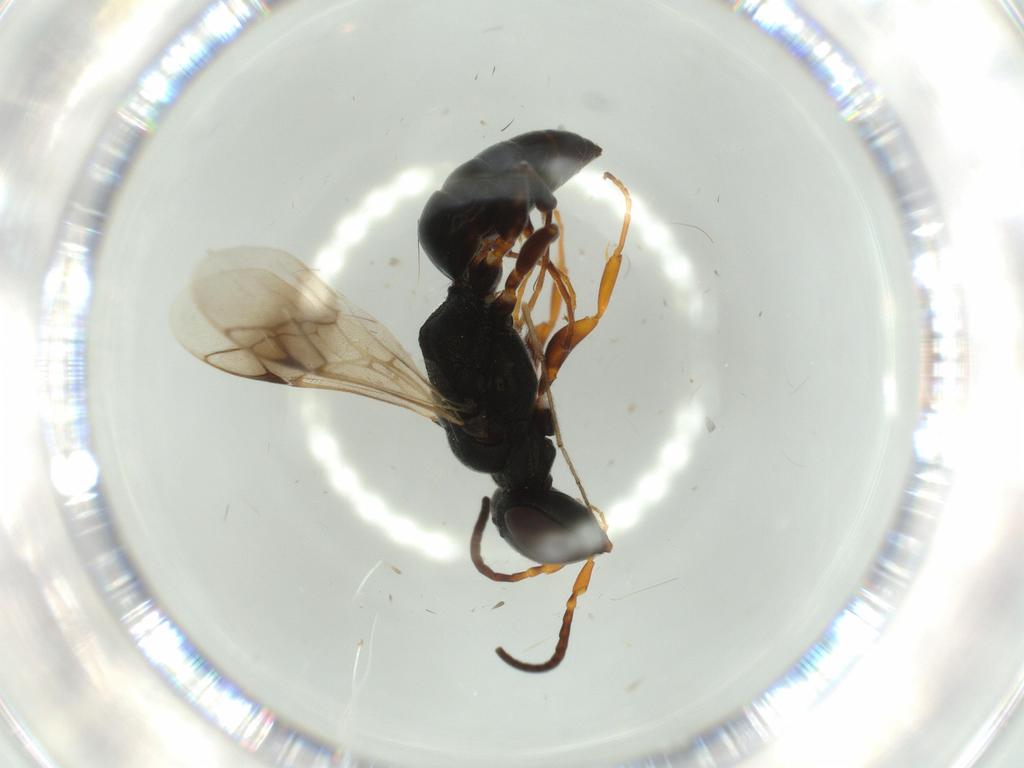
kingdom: Animalia
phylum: Arthropoda
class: Insecta
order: Hymenoptera
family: Crabronidae
